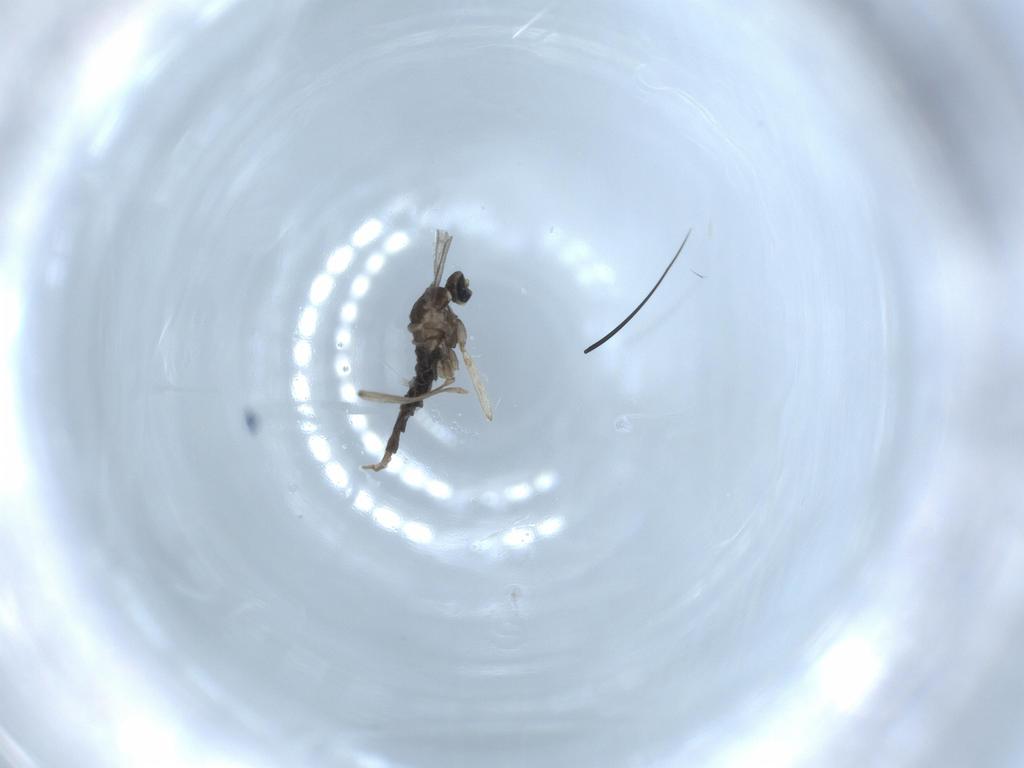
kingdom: Animalia
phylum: Arthropoda
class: Insecta
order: Diptera
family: Cecidomyiidae
